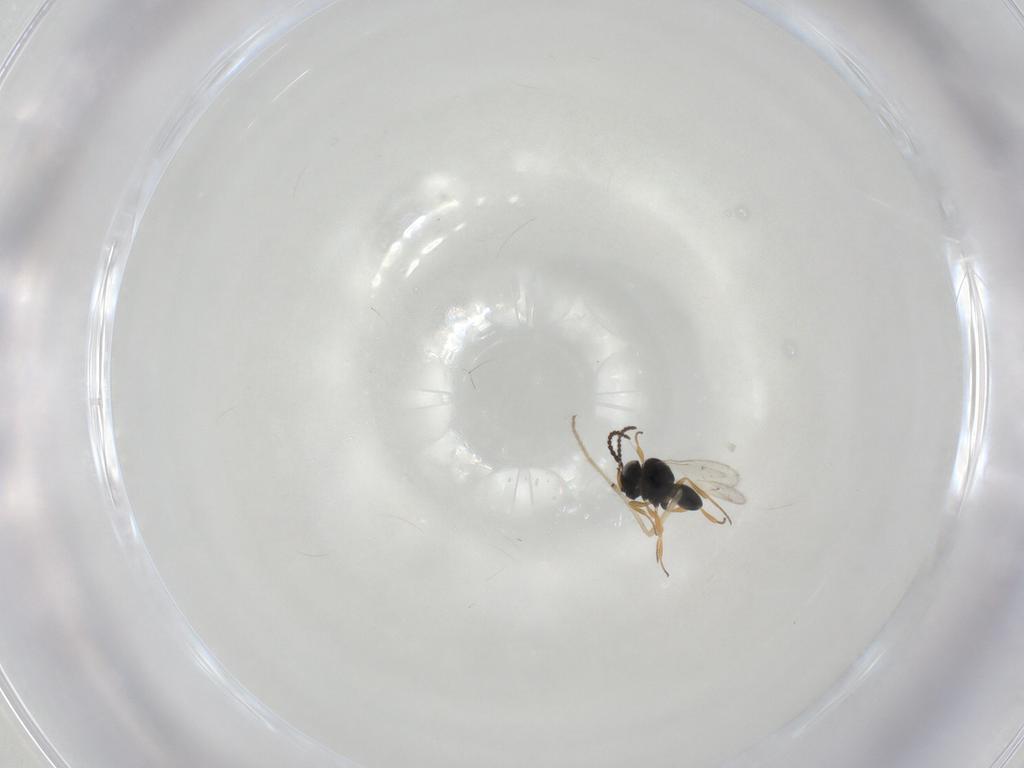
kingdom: Animalia
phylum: Arthropoda
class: Insecta
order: Hymenoptera
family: Scelionidae
